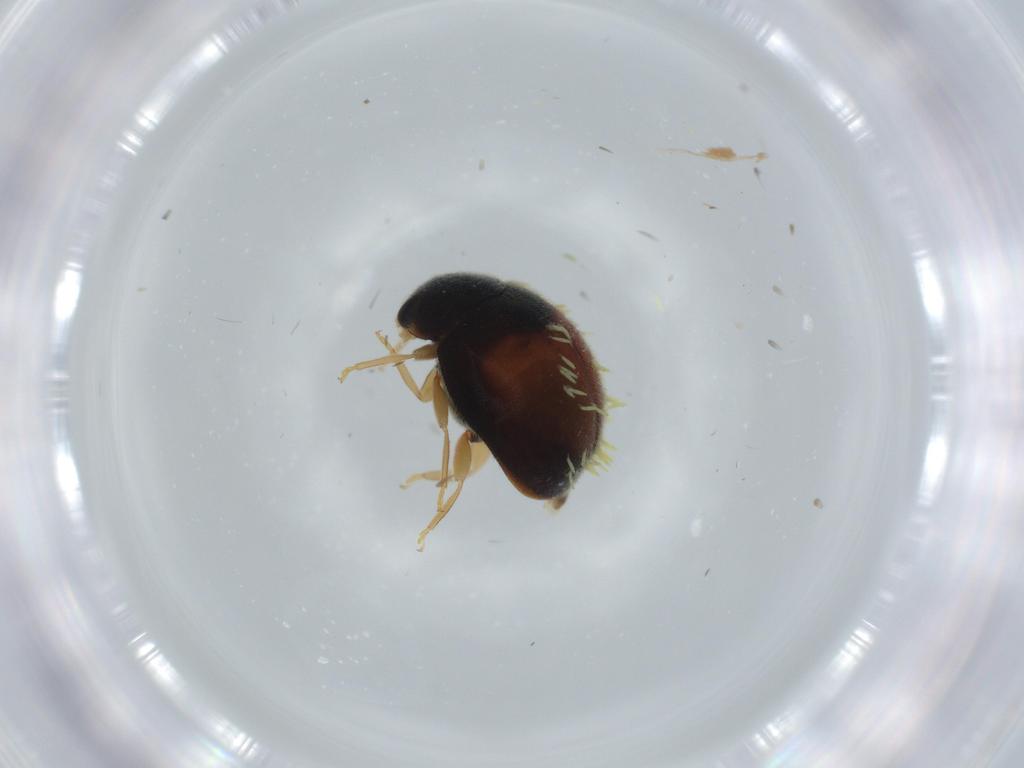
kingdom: Animalia
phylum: Arthropoda
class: Insecta
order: Coleoptera
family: Coccinellidae
